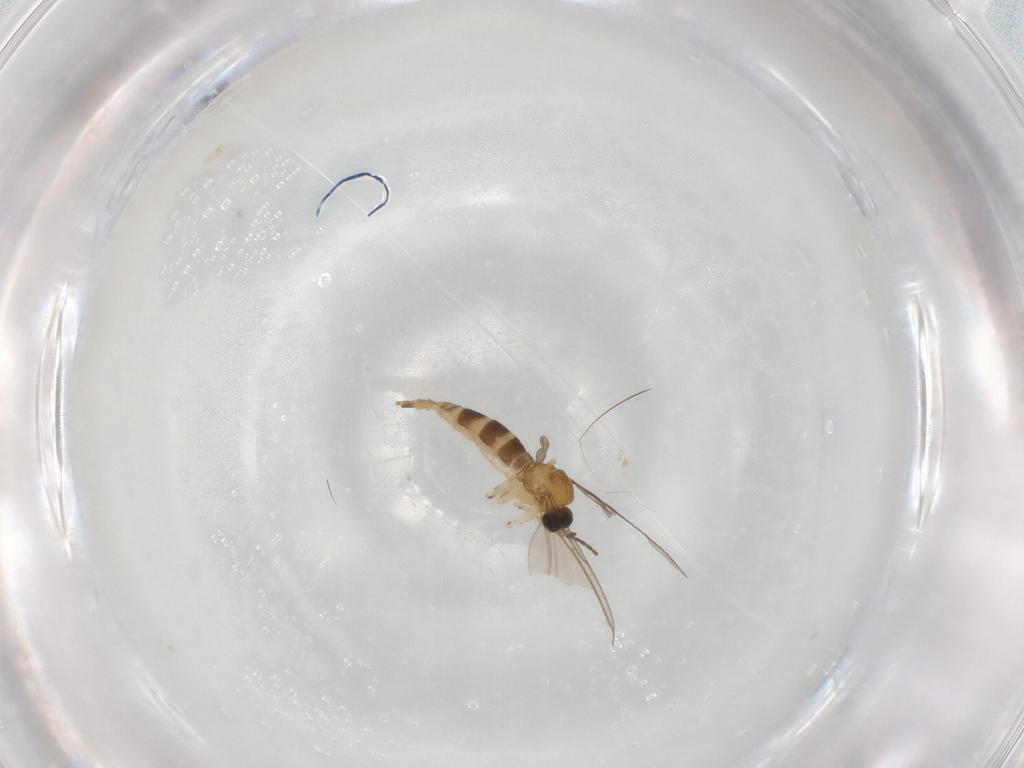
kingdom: Animalia
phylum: Arthropoda
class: Insecta
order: Diptera
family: Sciaridae
